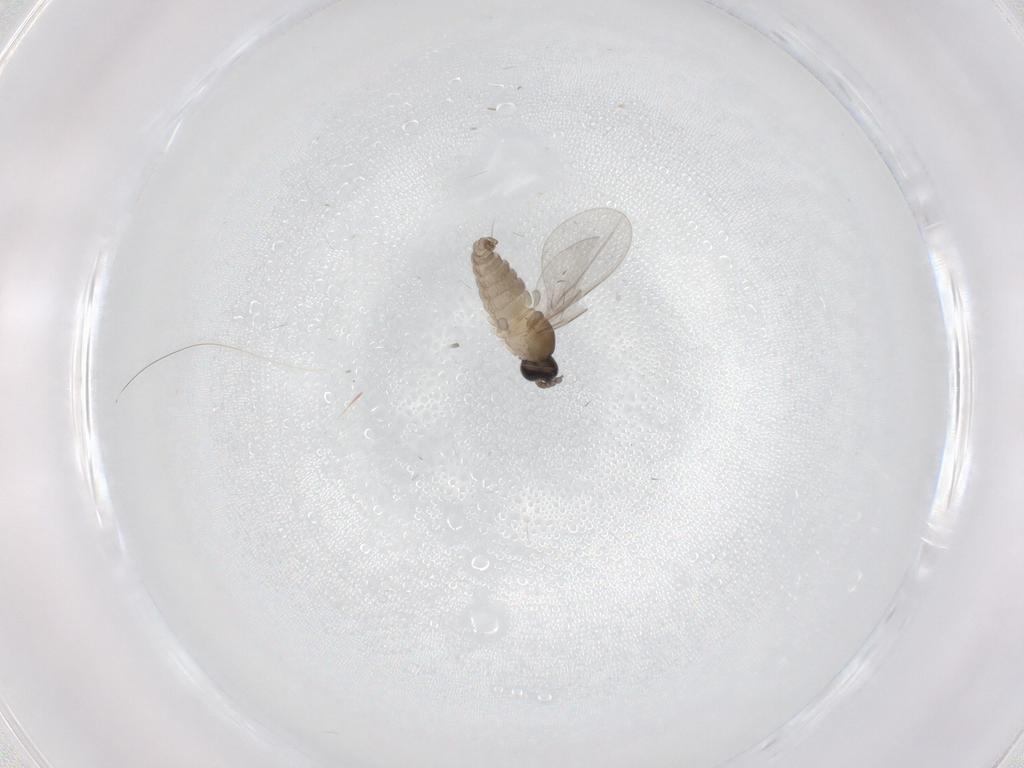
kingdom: Animalia
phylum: Arthropoda
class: Insecta
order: Diptera
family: Cecidomyiidae
